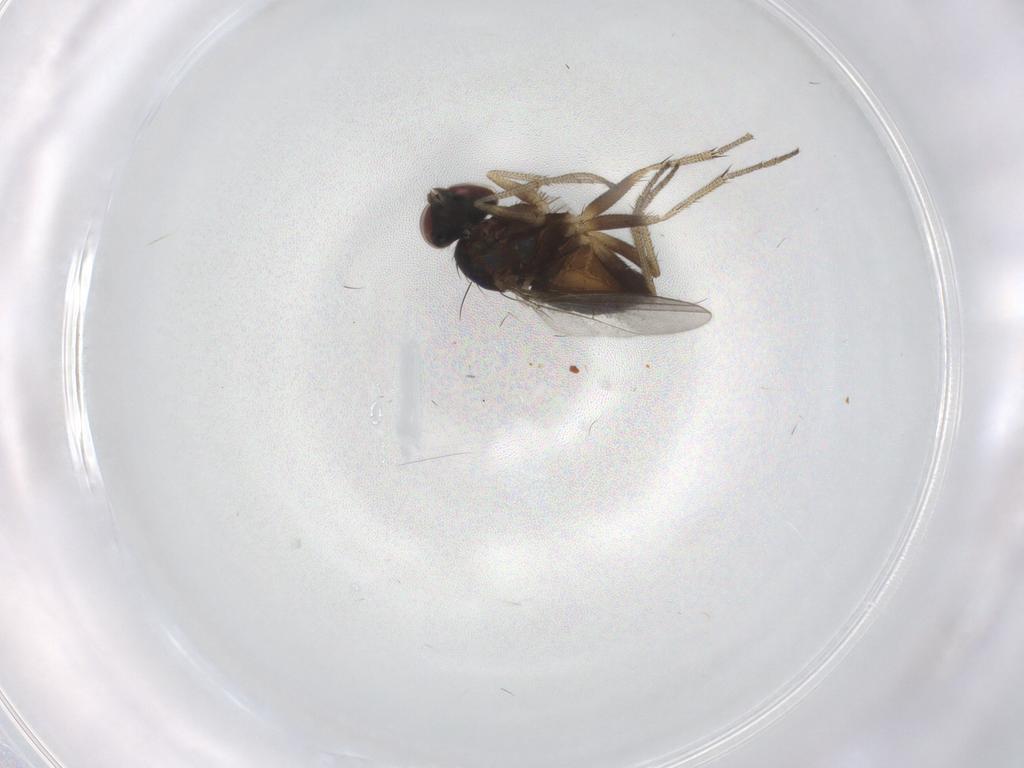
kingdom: Animalia
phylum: Arthropoda
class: Insecta
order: Diptera
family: Dolichopodidae
